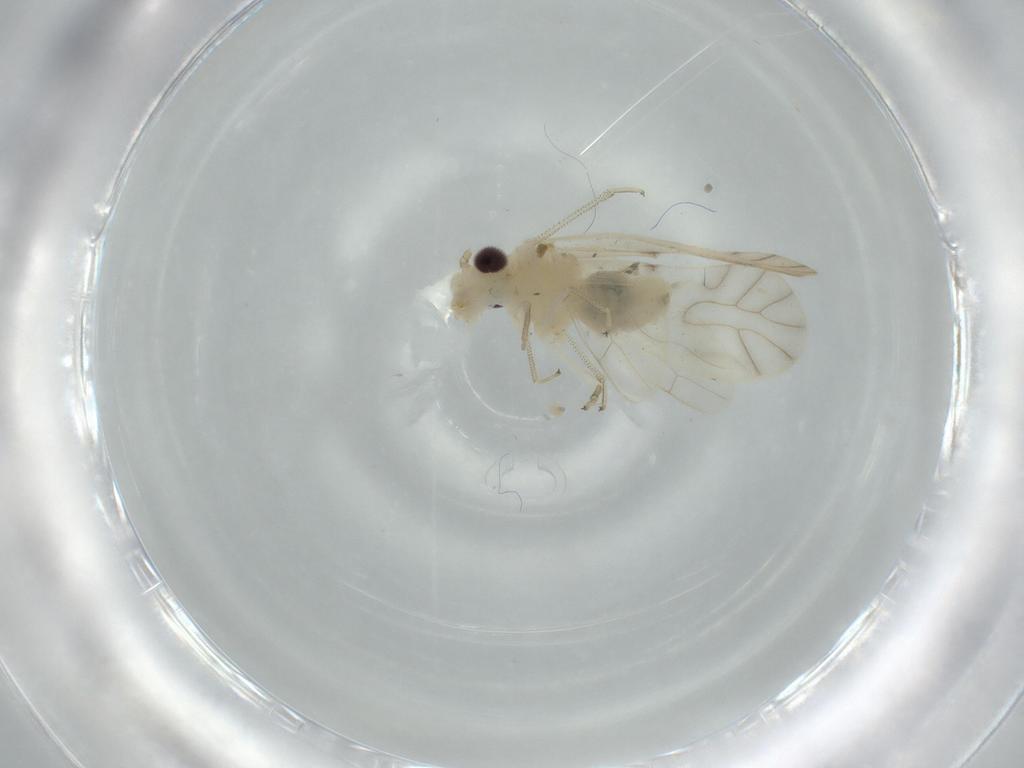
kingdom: Animalia
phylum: Arthropoda
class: Insecta
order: Psocodea
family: Caeciliusidae
